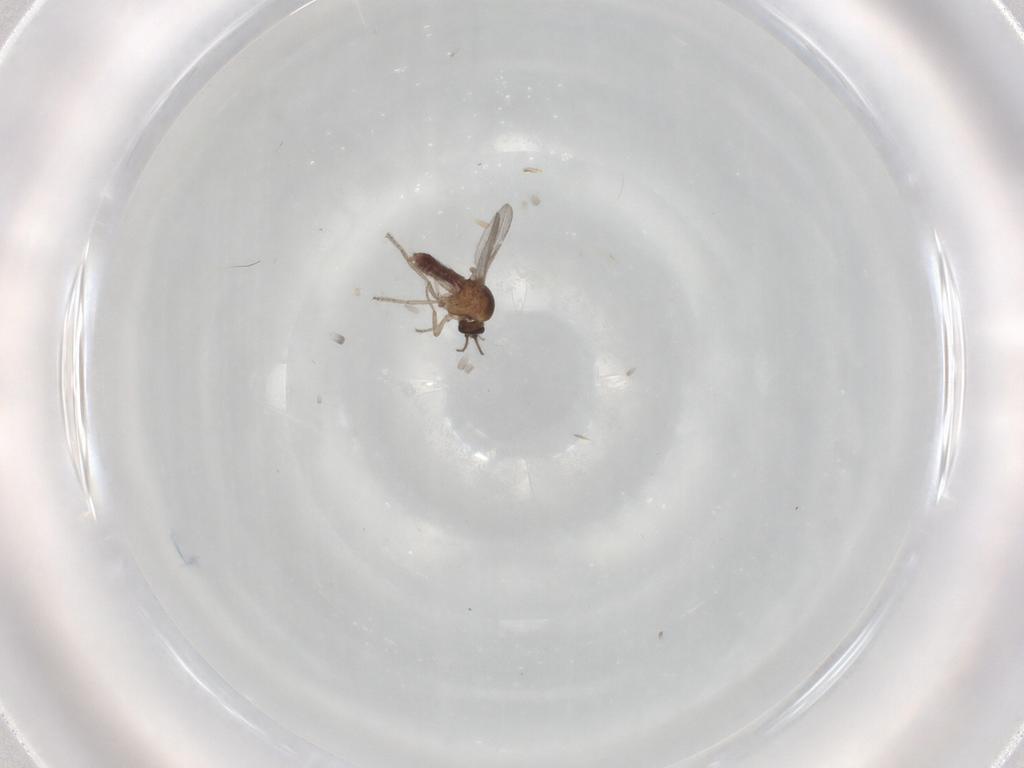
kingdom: Animalia
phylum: Arthropoda
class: Insecta
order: Diptera
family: Ceratopogonidae
